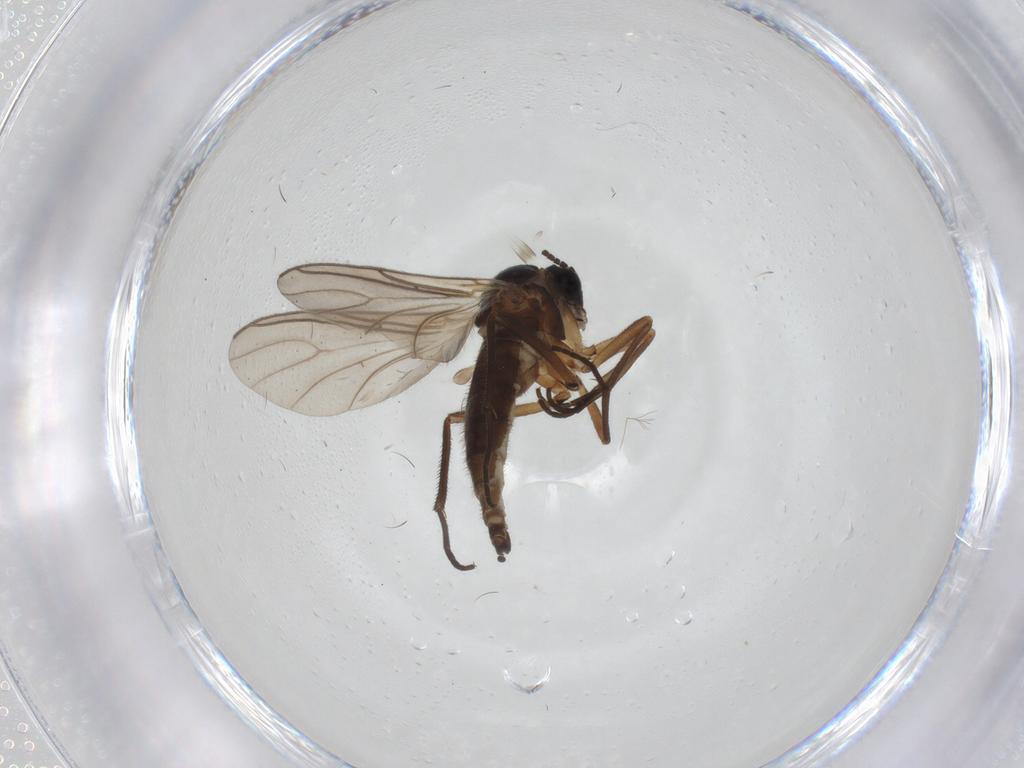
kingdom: Animalia
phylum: Arthropoda
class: Insecta
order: Diptera
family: Sciaridae
